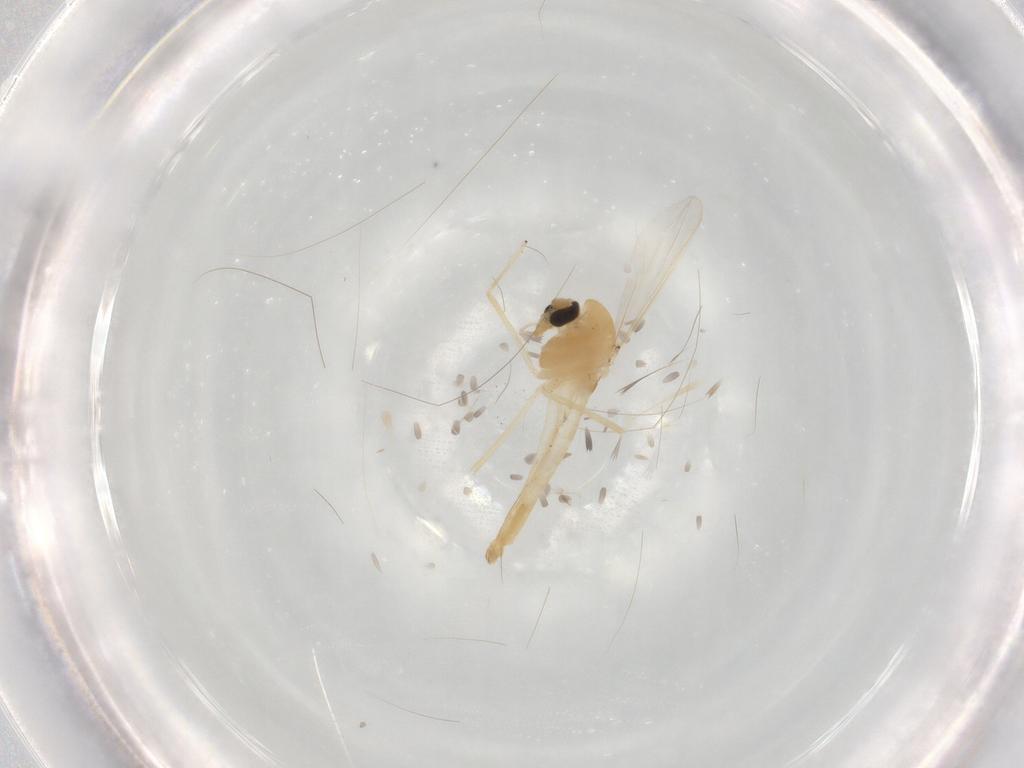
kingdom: Animalia
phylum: Arthropoda
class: Insecta
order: Diptera
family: Chironomidae
